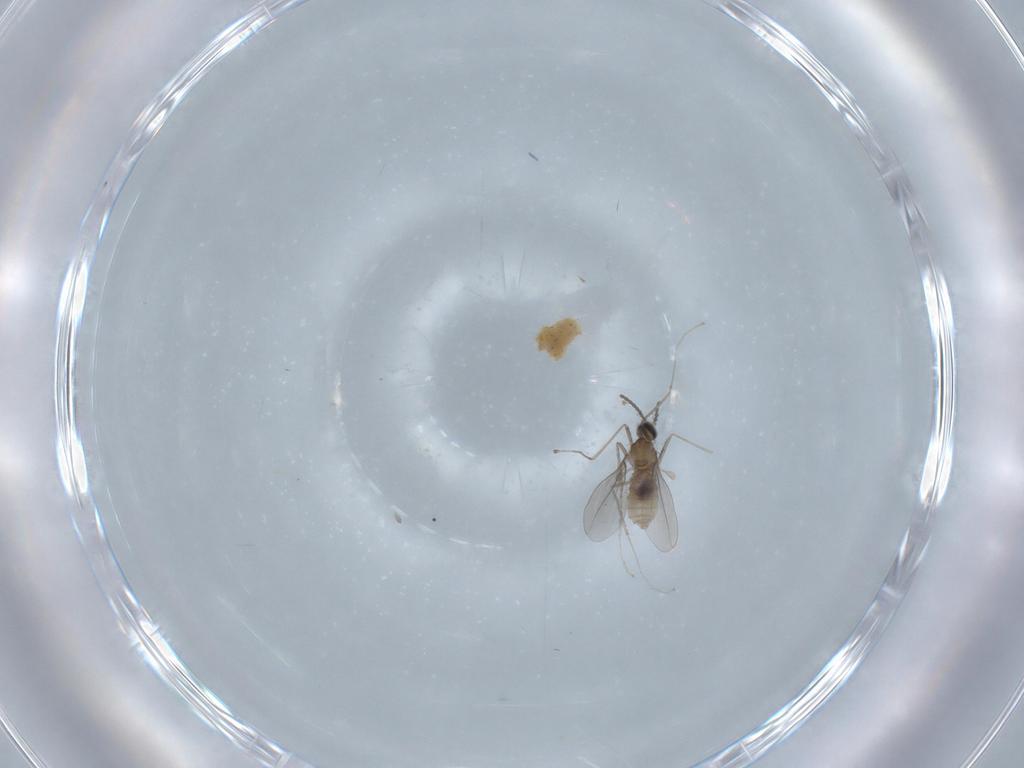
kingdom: Animalia
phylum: Arthropoda
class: Insecta
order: Diptera
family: Cecidomyiidae
